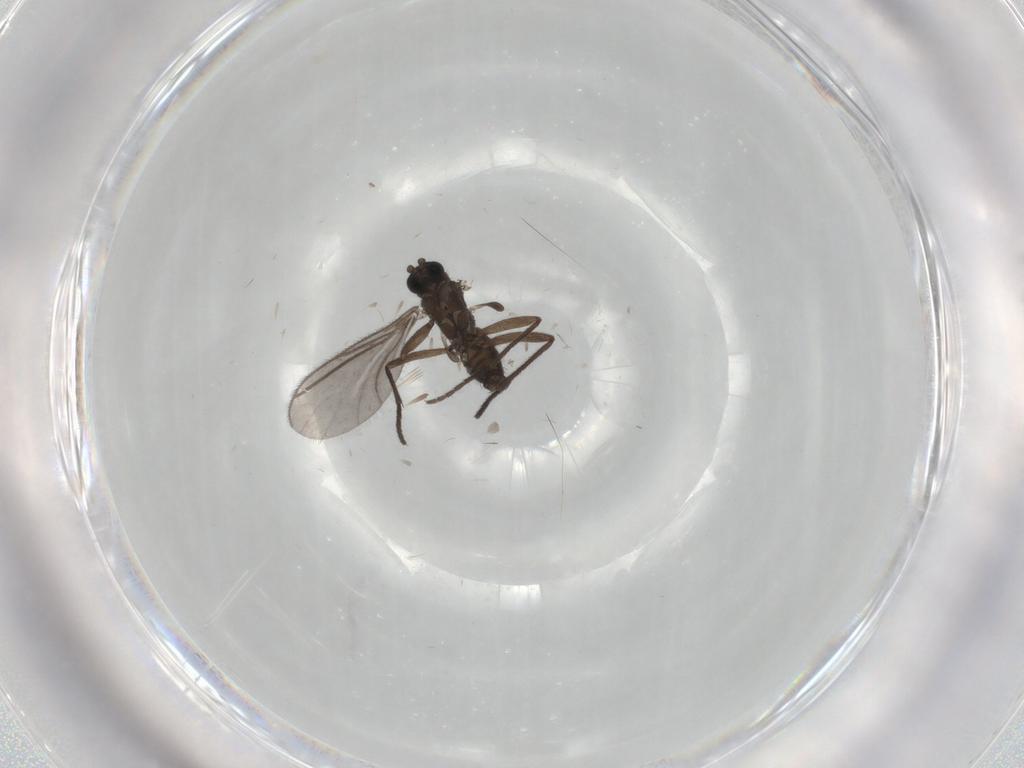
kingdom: Animalia
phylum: Arthropoda
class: Insecta
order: Diptera
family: Sciaridae
